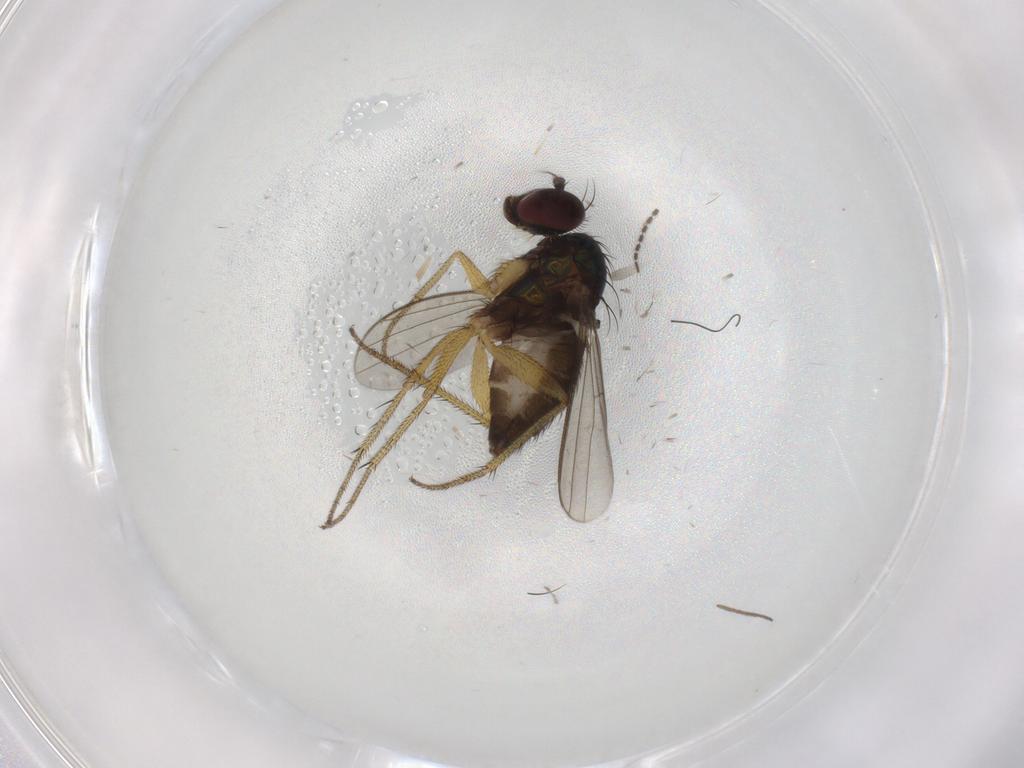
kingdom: Animalia
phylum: Arthropoda
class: Insecta
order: Diptera
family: Dolichopodidae
